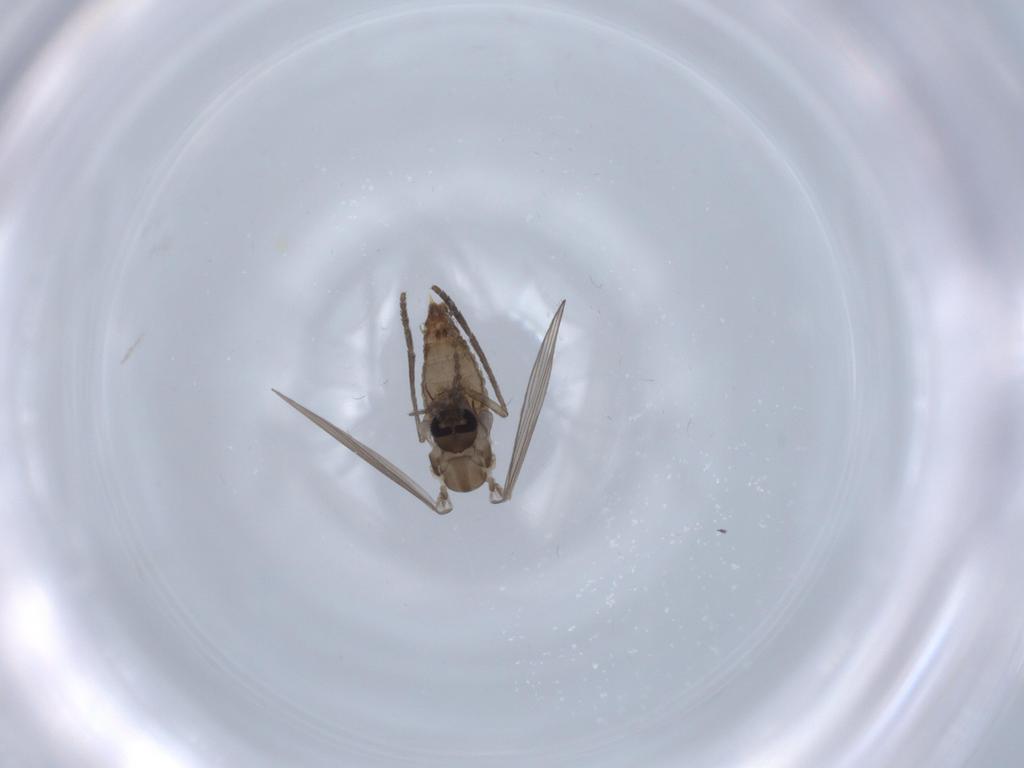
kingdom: Animalia
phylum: Arthropoda
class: Insecta
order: Diptera
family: Psychodidae
